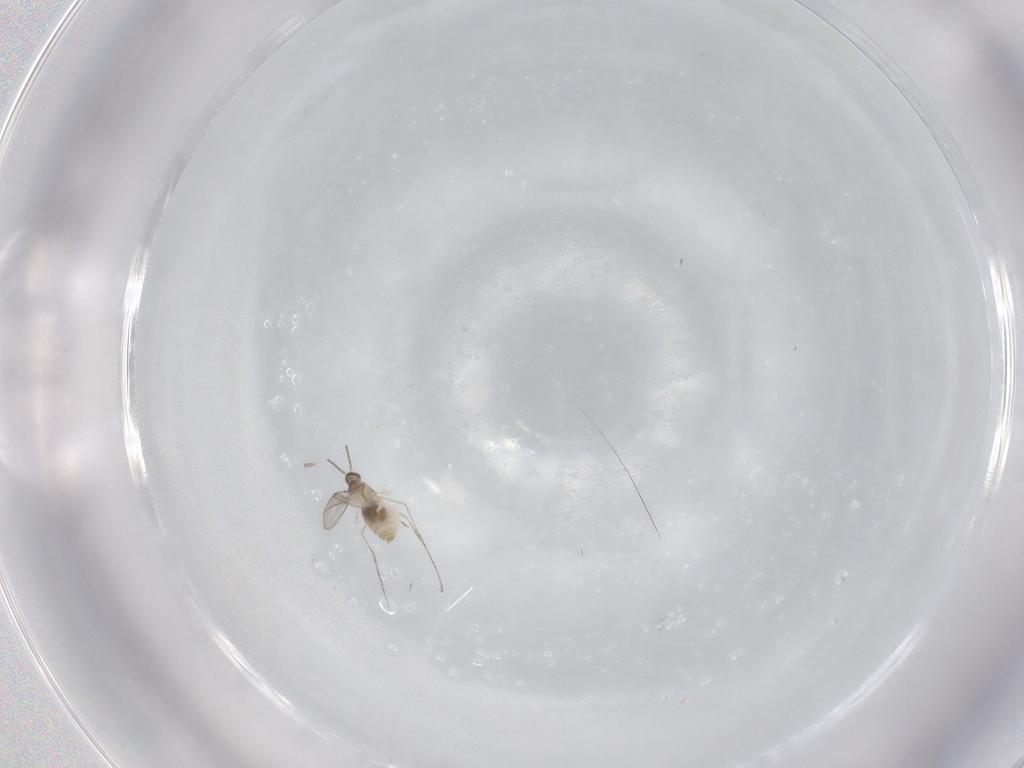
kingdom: Animalia
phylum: Arthropoda
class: Insecta
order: Diptera
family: Cecidomyiidae
